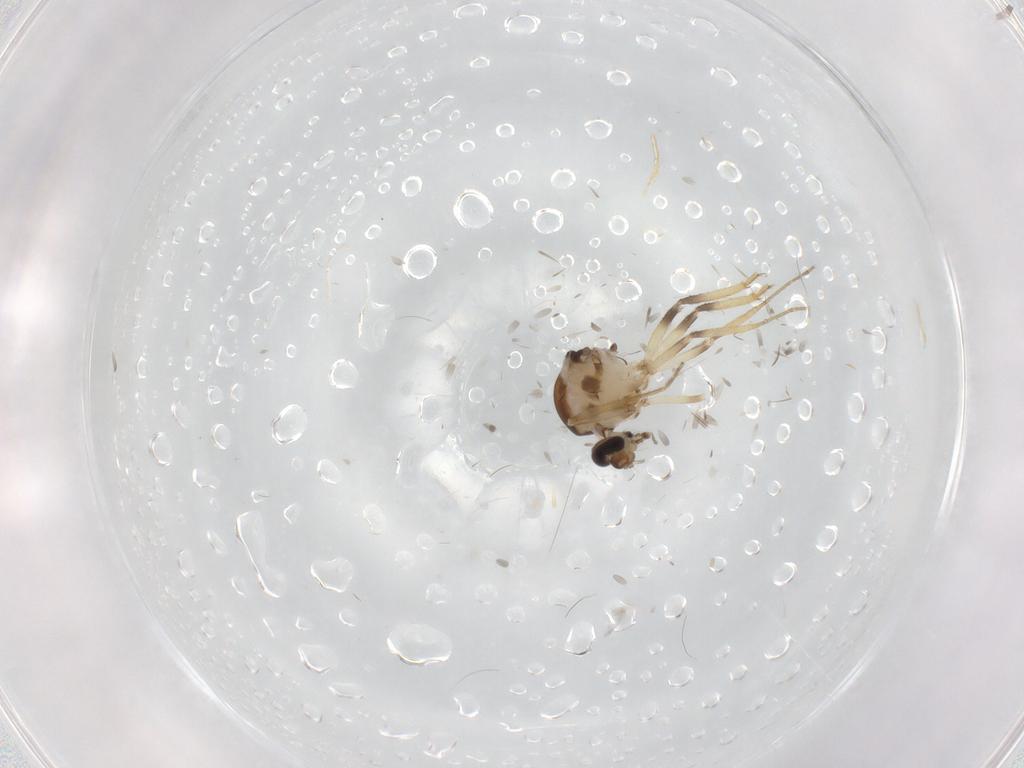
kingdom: Animalia
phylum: Arthropoda
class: Insecta
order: Diptera
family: Ceratopogonidae
